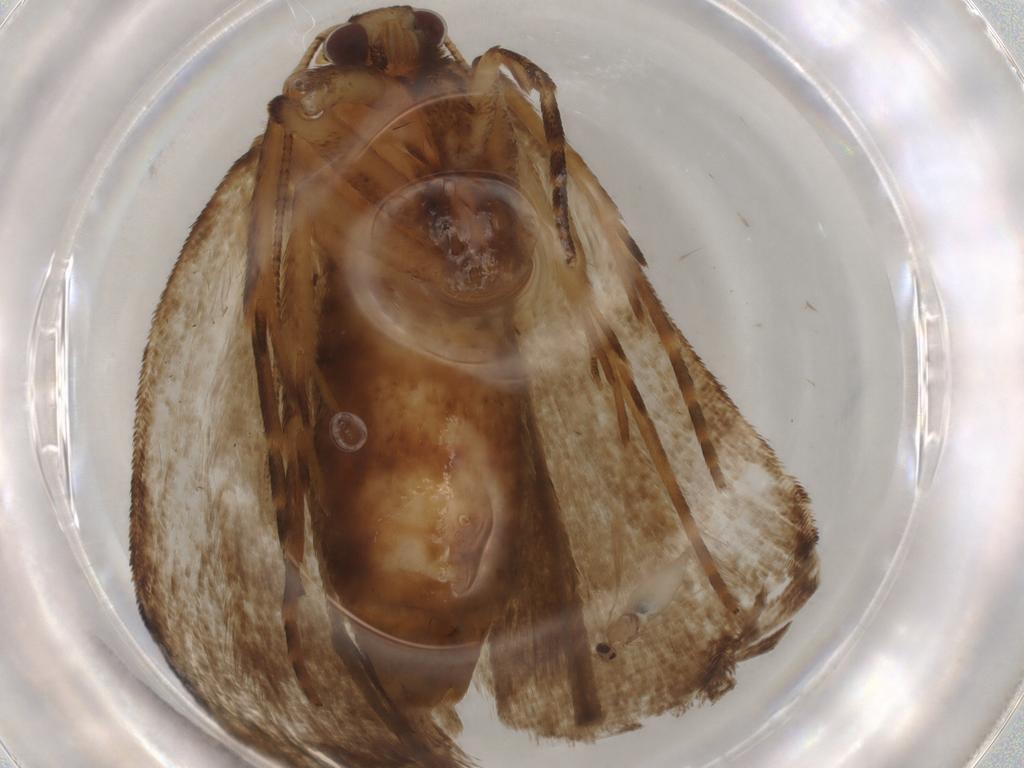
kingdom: Animalia
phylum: Arthropoda
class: Insecta
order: Lepidoptera
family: Erebidae
